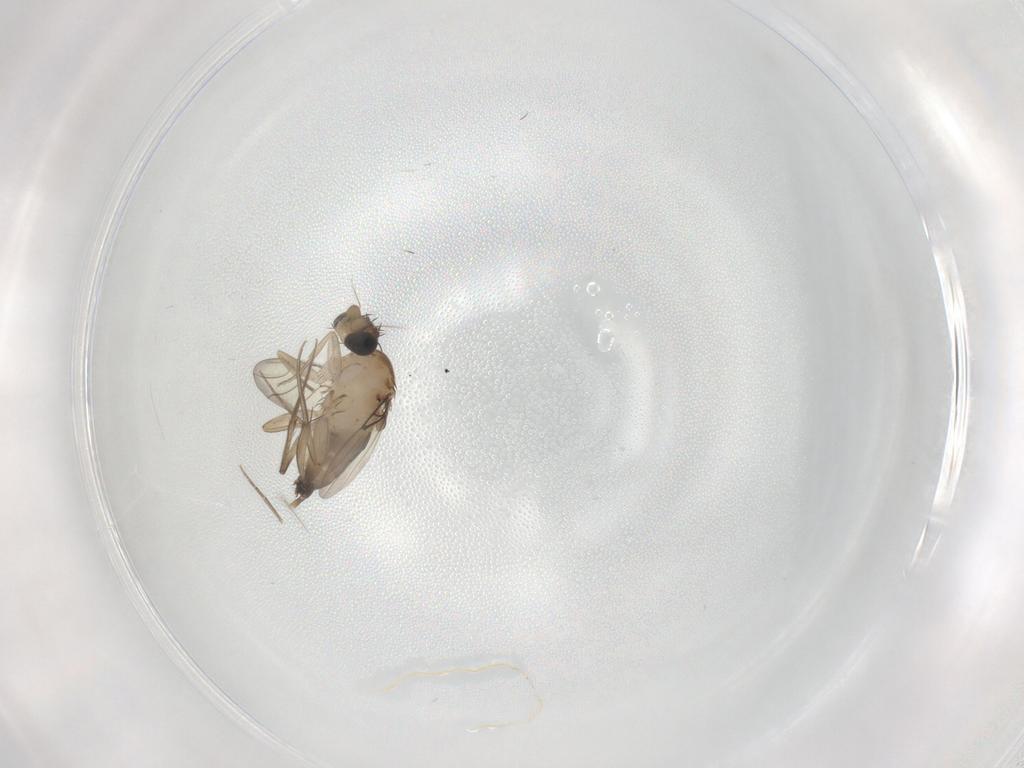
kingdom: Animalia
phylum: Arthropoda
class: Insecta
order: Diptera
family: Phoridae
